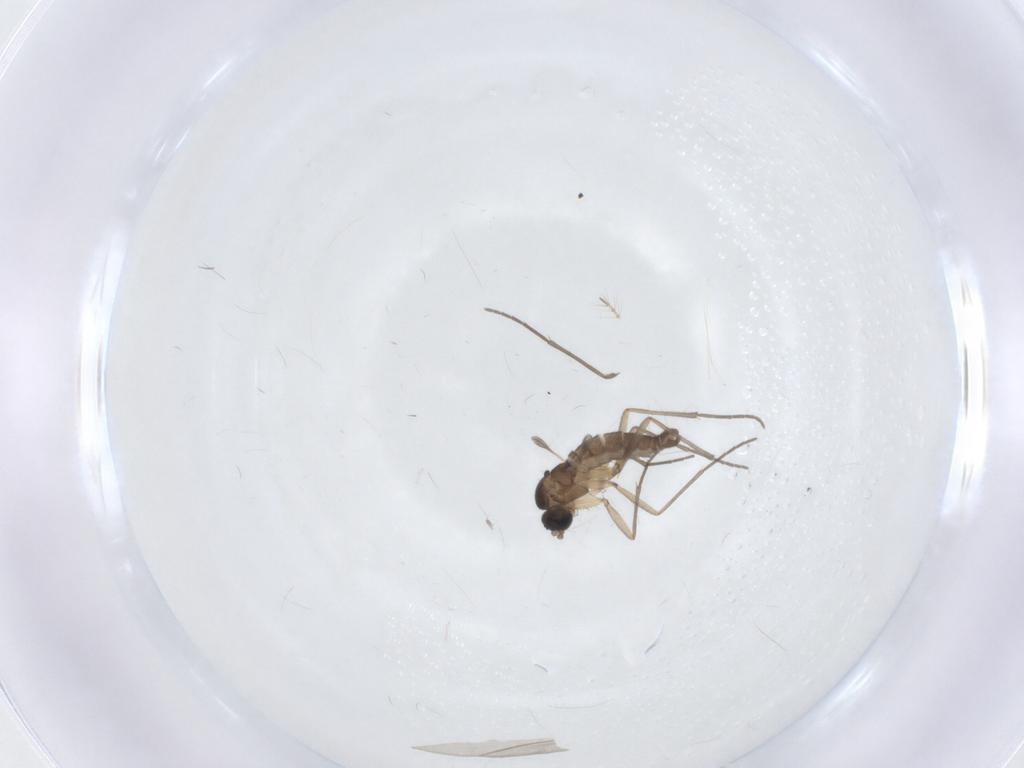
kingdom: Animalia
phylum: Arthropoda
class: Insecta
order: Diptera
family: Sciaridae
